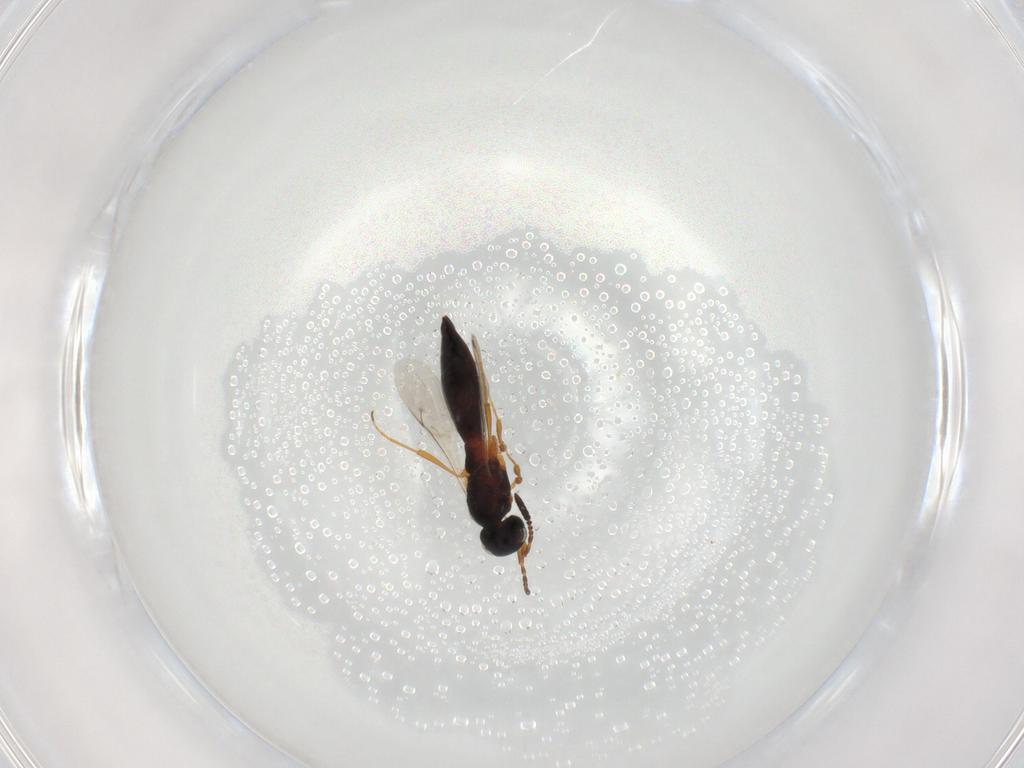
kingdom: Animalia
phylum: Arthropoda
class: Insecta
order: Hymenoptera
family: Scelionidae
